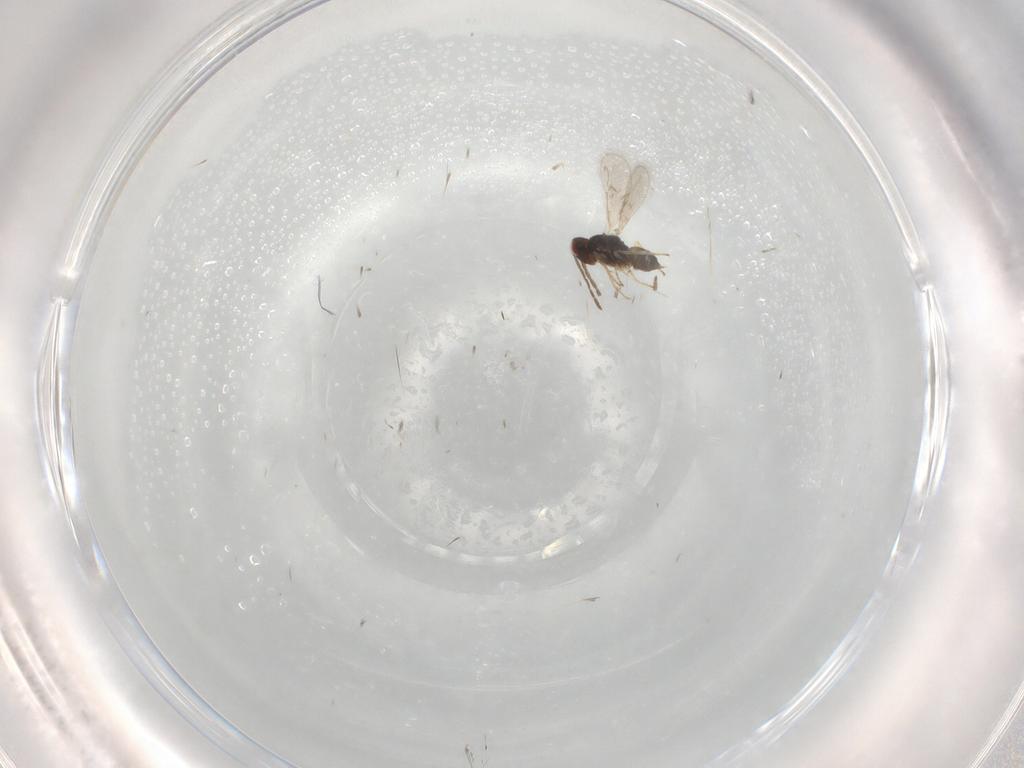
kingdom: Animalia
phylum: Arthropoda
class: Insecta
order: Hymenoptera
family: Eulophidae
